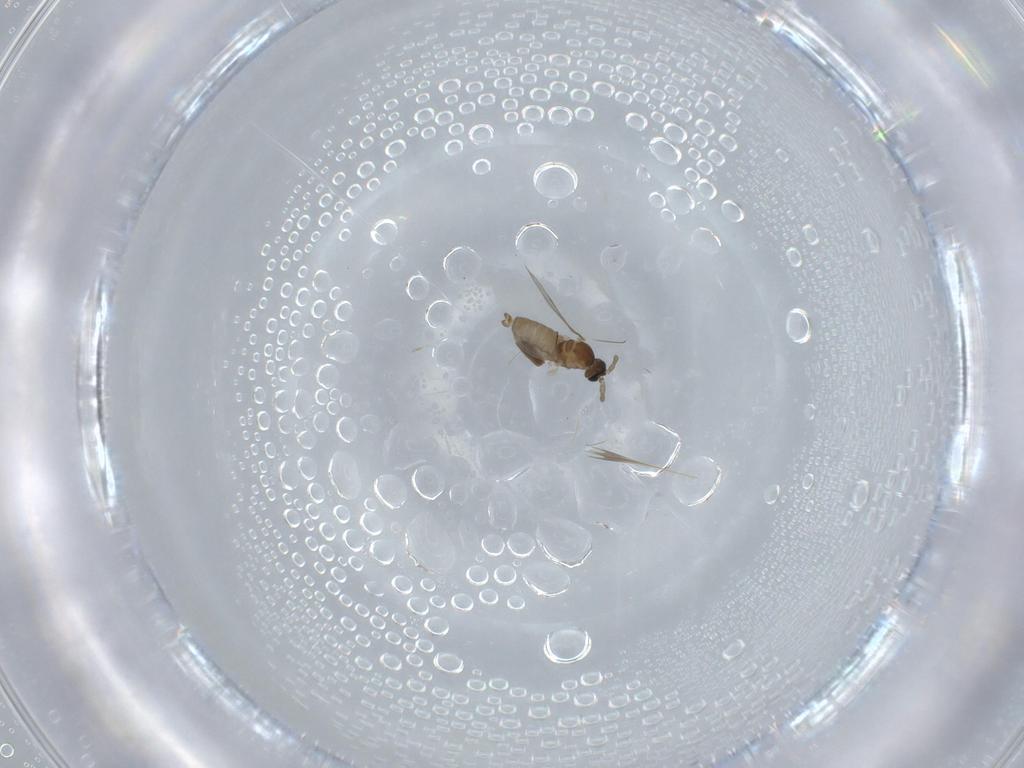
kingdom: Animalia
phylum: Arthropoda
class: Insecta
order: Diptera
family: Cecidomyiidae
